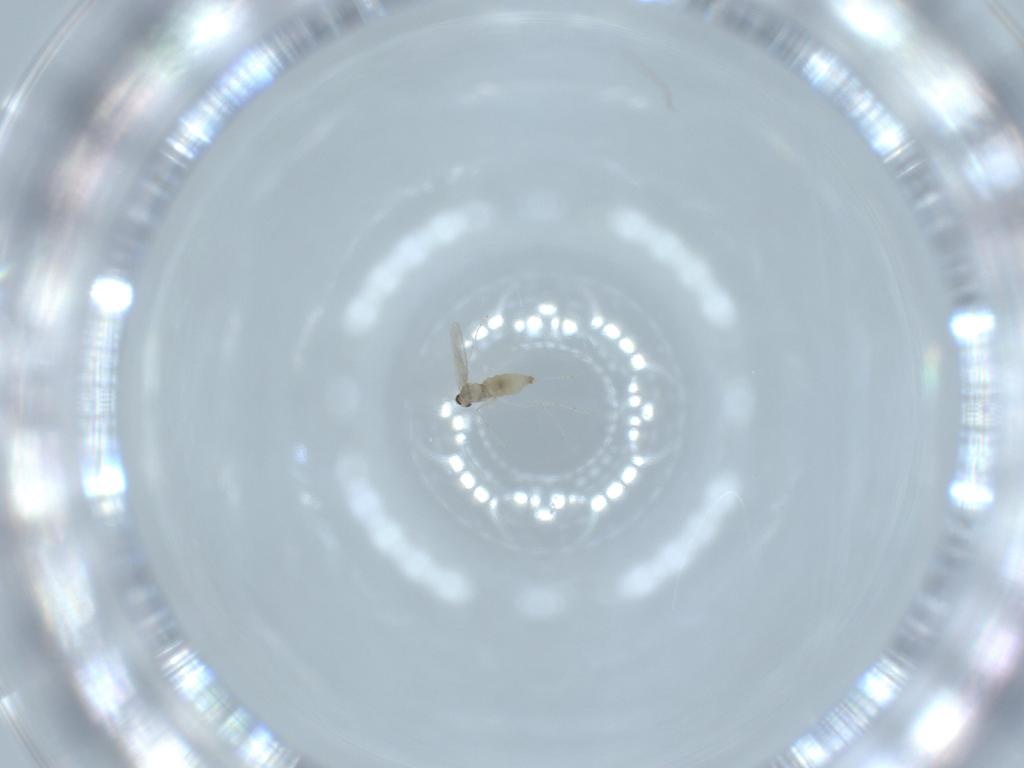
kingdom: Animalia
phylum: Arthropoda
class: Insecta
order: Diptera
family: Cecidomyiidae
